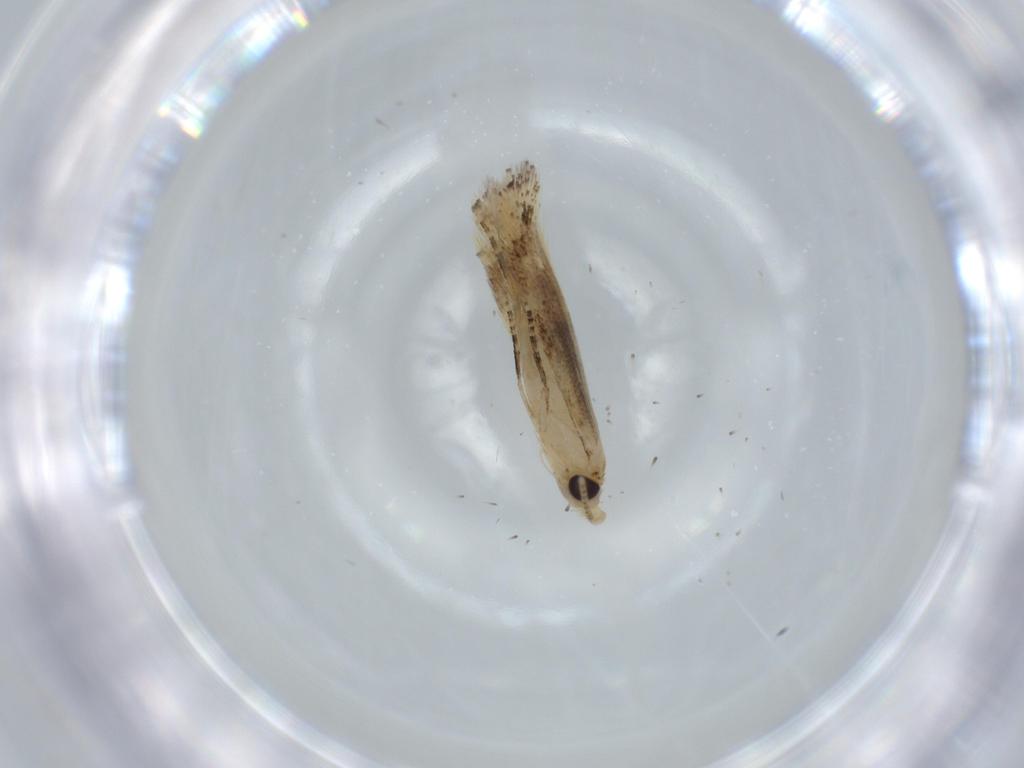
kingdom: Animalia
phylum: Arthropoda
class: Insecta
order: Lepidoptera
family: Bucculatricidae
